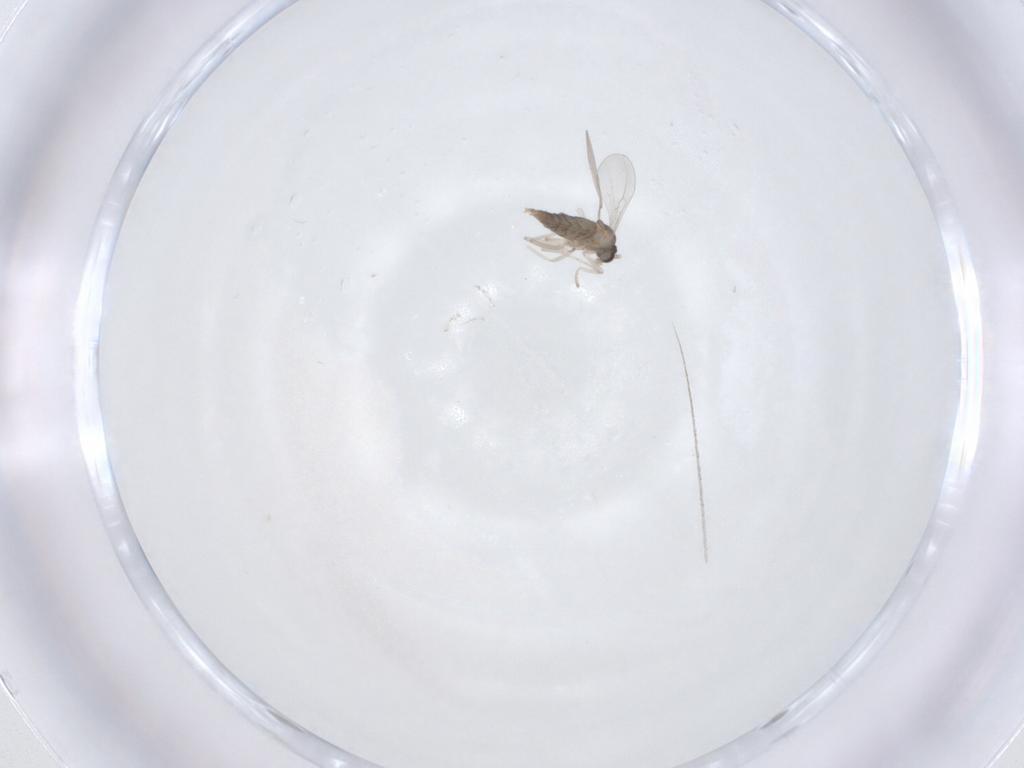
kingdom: Animalia
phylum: Arthropoda
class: Insecta
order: Diptera
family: Cecidomyiidae
